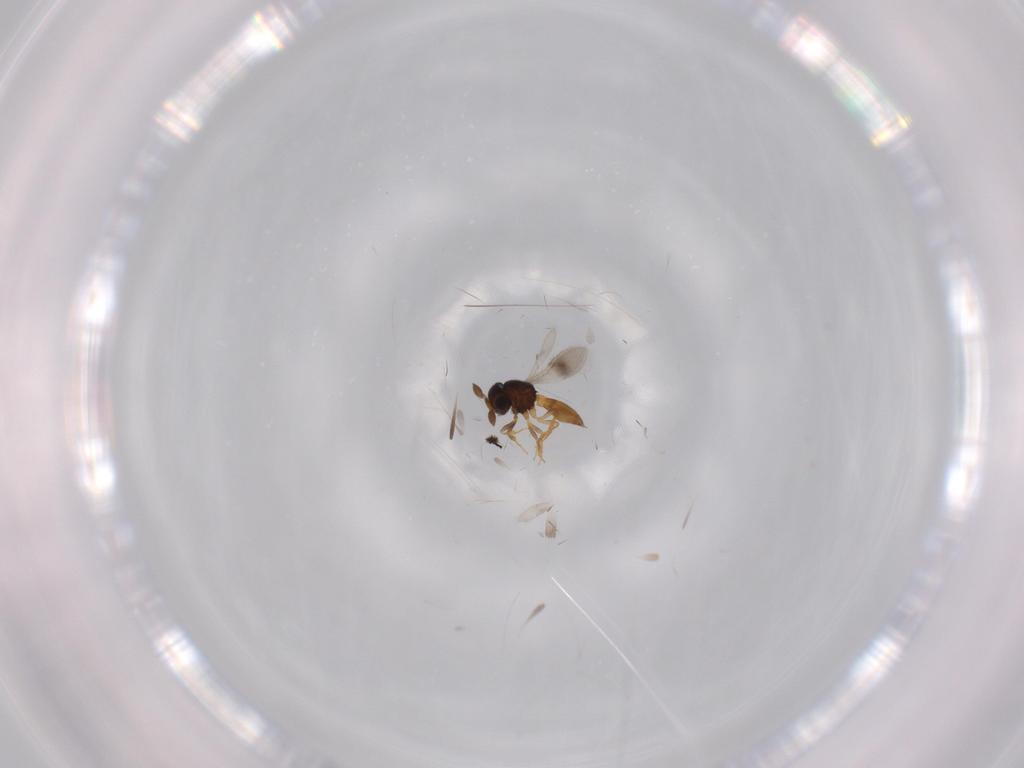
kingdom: Animalia
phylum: Arthropoda
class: Insecta
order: Hymenoptera
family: Scelionidae
